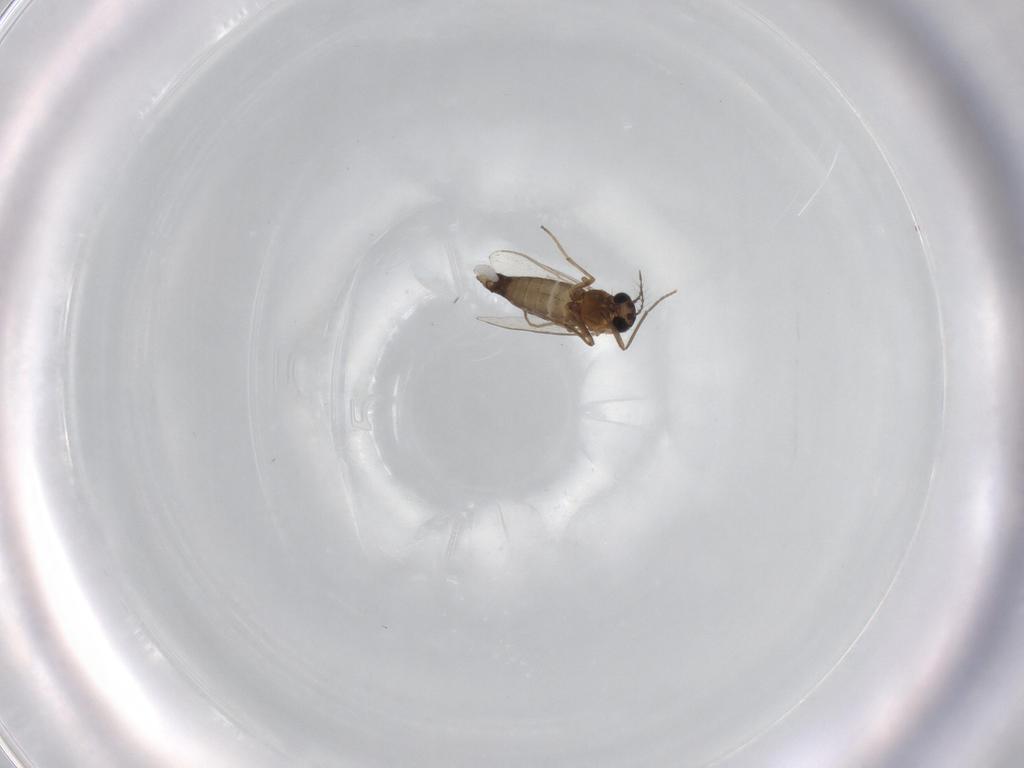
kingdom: Animalia
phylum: Arthropoda
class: Insecta
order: Diptera
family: Chironomidae
